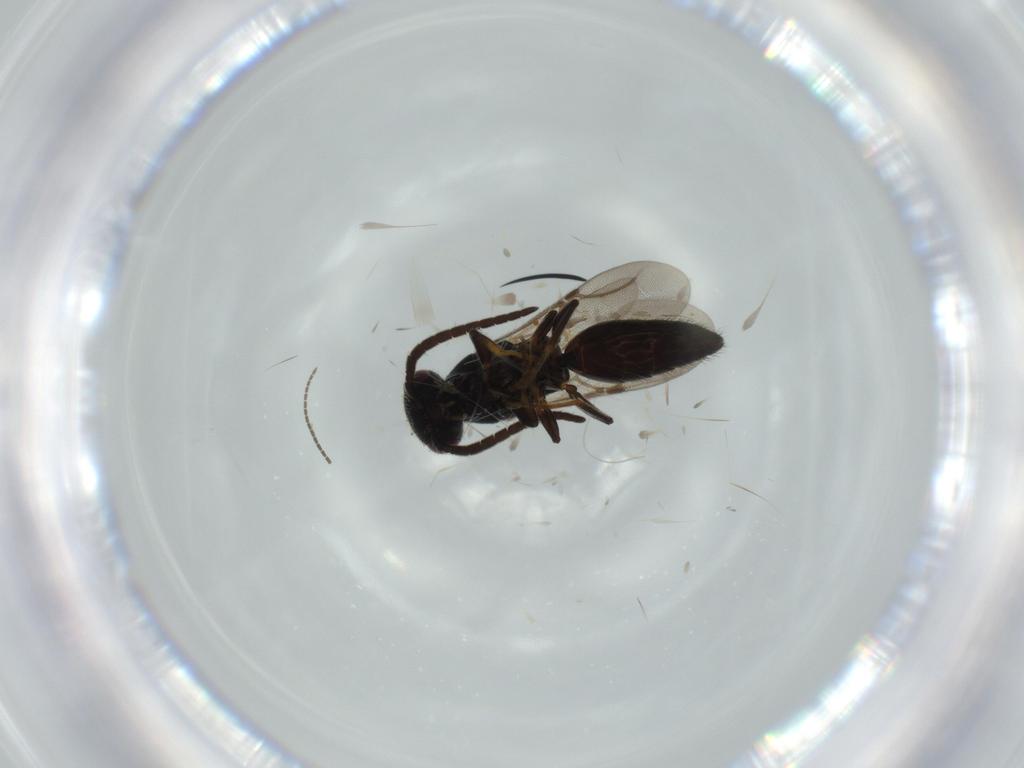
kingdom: Animalia
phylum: Arthropoda
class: Insecta
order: Hymenoptera
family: Bethylidae
